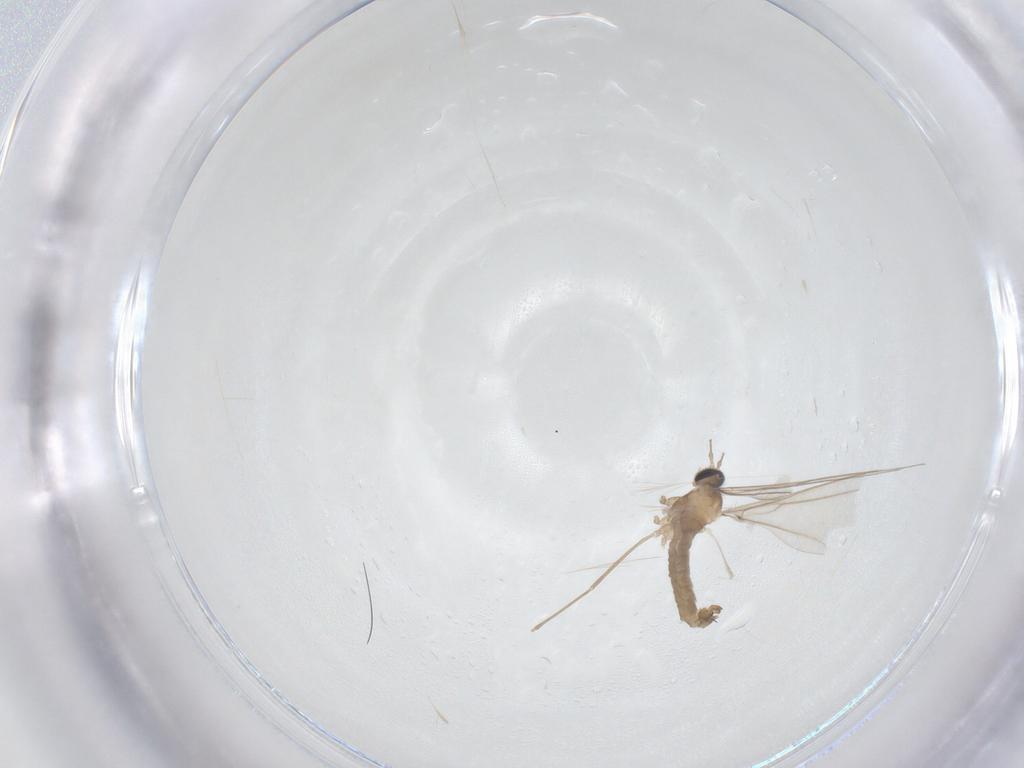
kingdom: Animalia
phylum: Arthropoda
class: Insecta
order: Diptera
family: Cecidomyiidae
